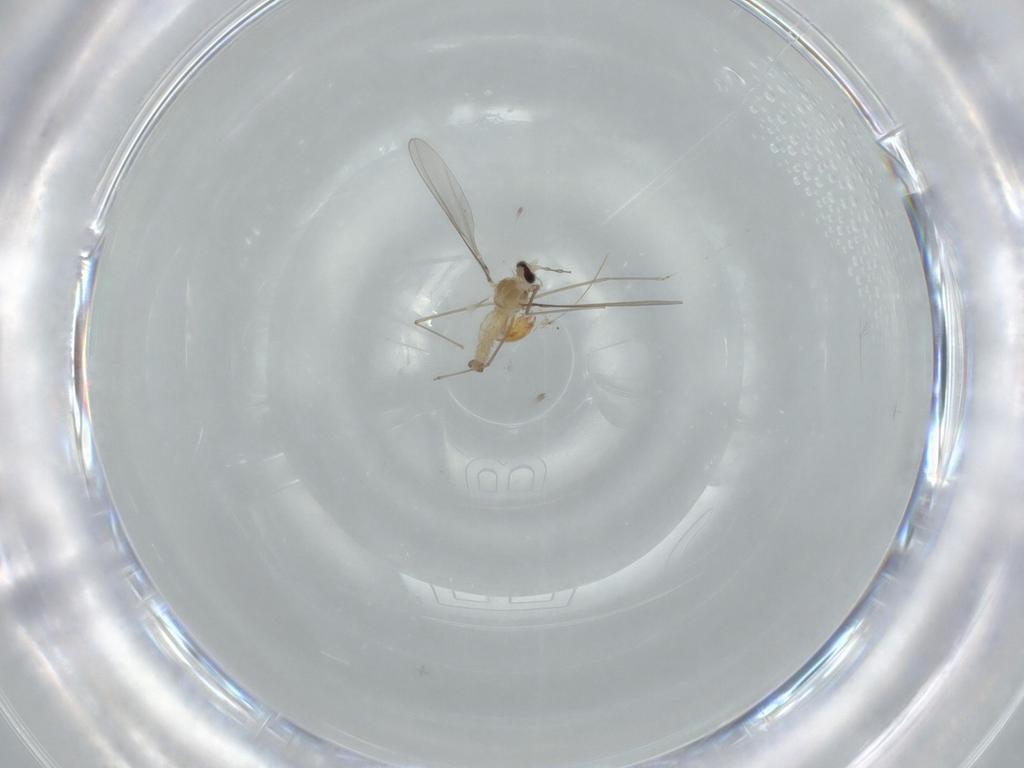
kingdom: Animalia
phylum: Arthropoda
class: Insecta
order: Diptera
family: Cecidomyiidae
